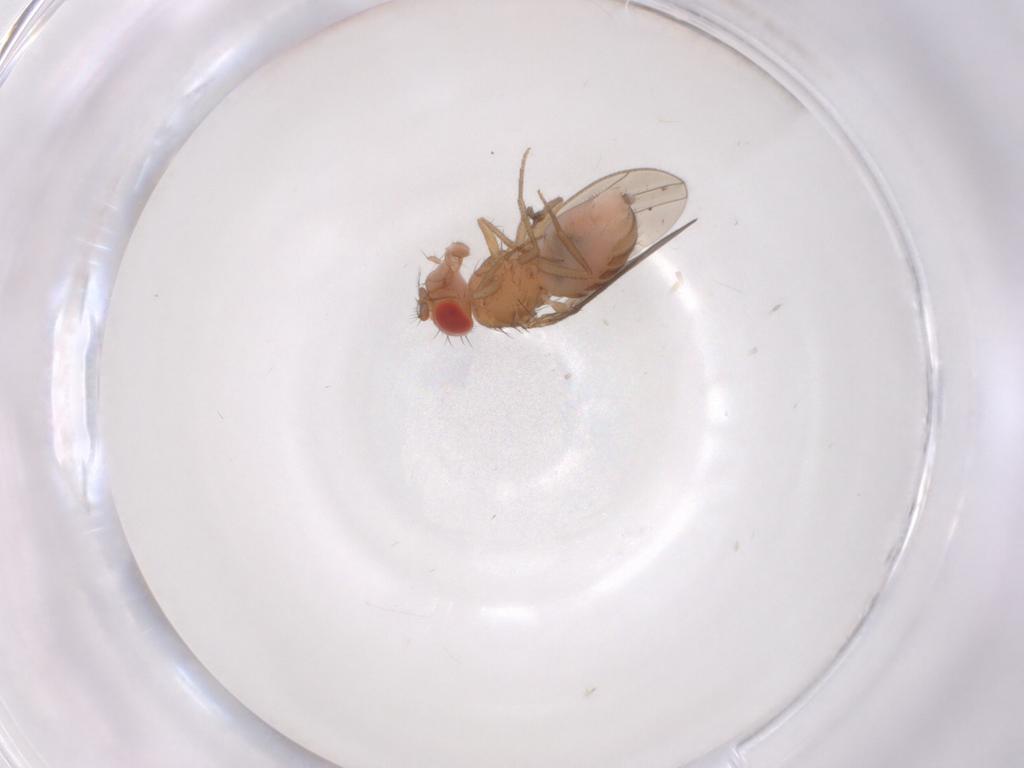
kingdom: Animalia
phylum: Arthropoda
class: Insecta
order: Diptera
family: Drosophilidae
